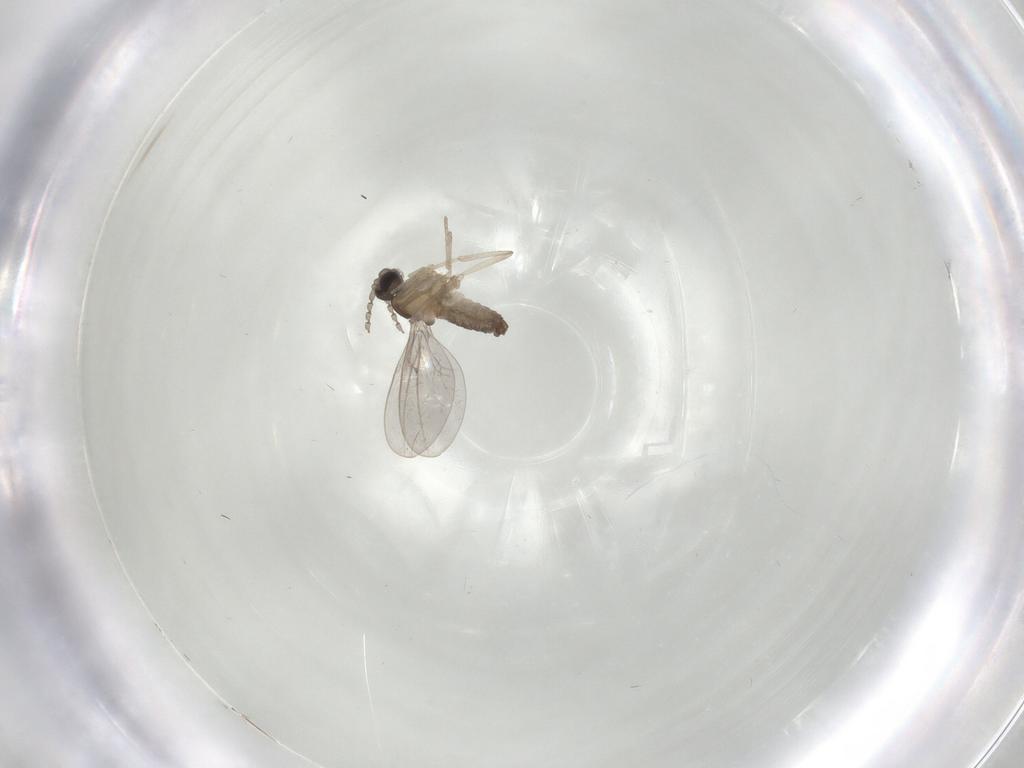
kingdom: Animalia
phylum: Arthropoda
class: Insecta
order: Diptera
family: Cecidomyiidae
